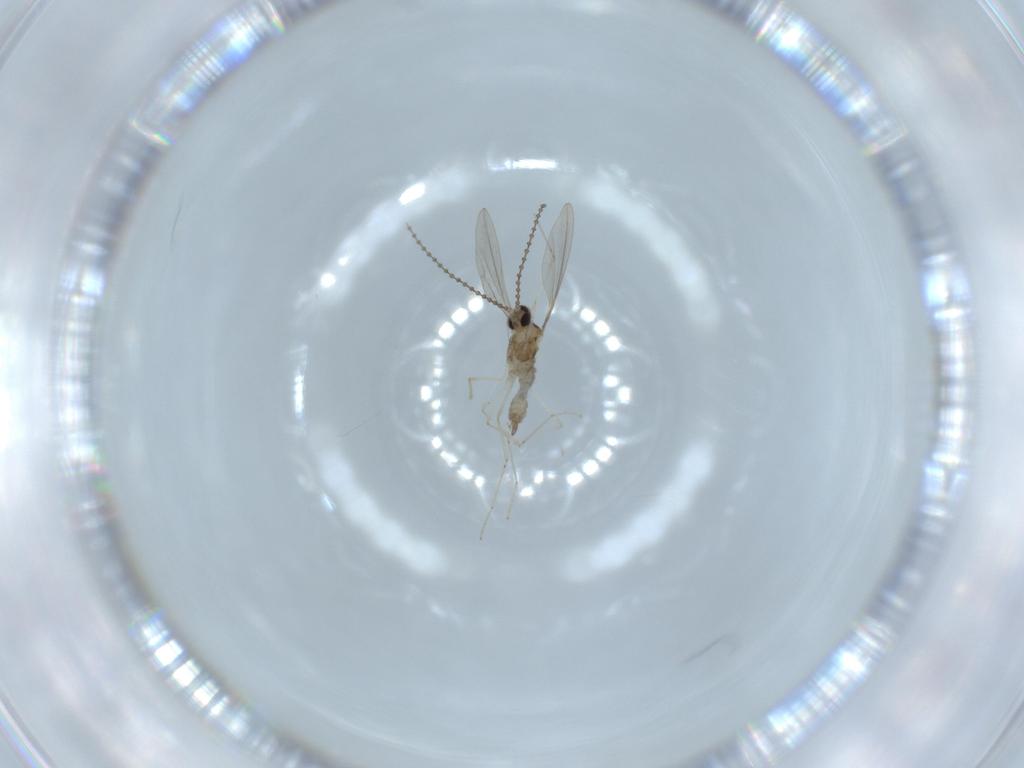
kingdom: Animalia
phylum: Arthropoda
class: Insecta
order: Diptera
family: Cecidomyiidae
